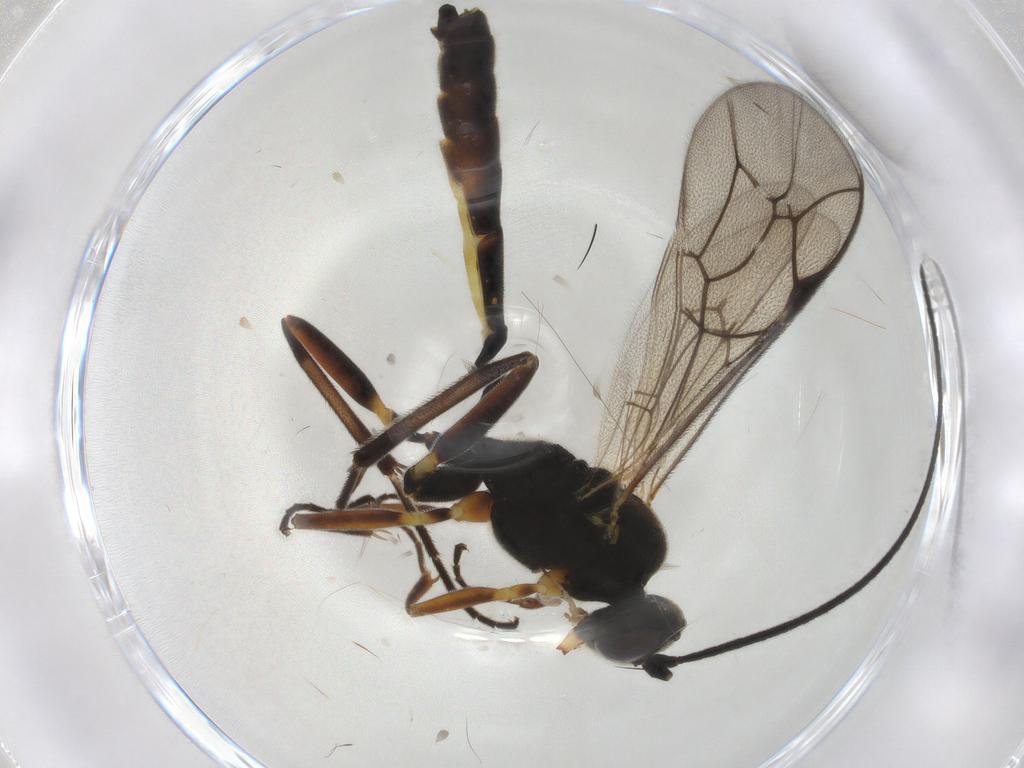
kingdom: Animalia
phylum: Arthropoda
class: Insecta
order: Hymenoptera
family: Ichneumonidae
